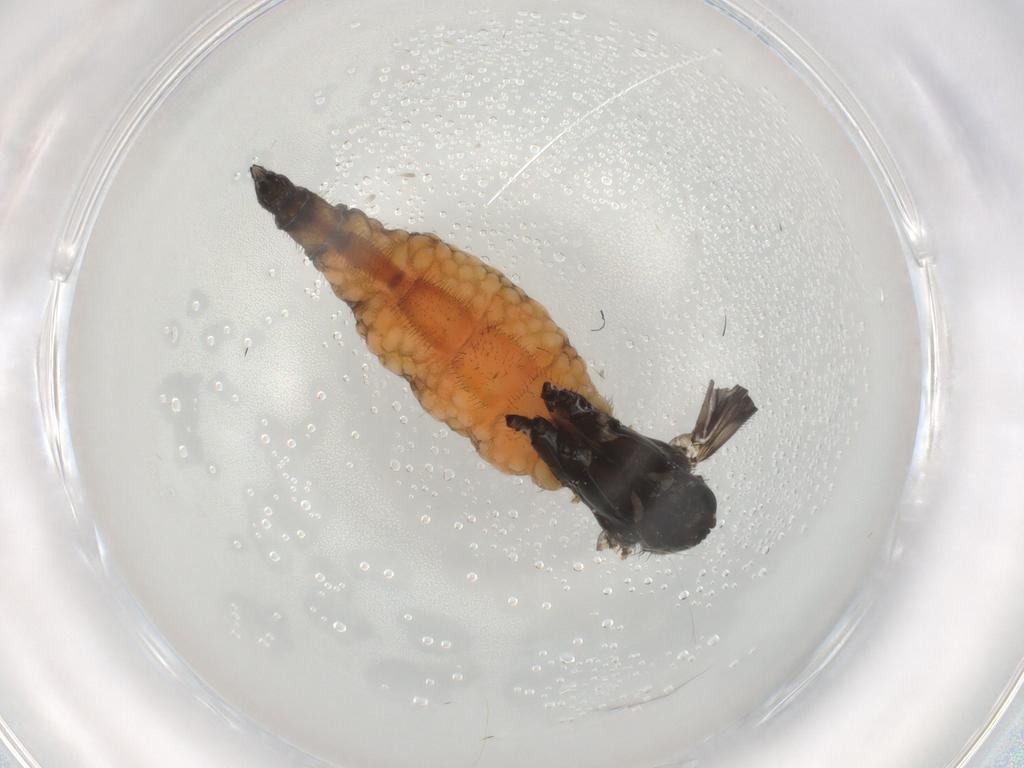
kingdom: Animalia
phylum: Arthropoda
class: Insecta
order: Diptera
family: Sciaridae
